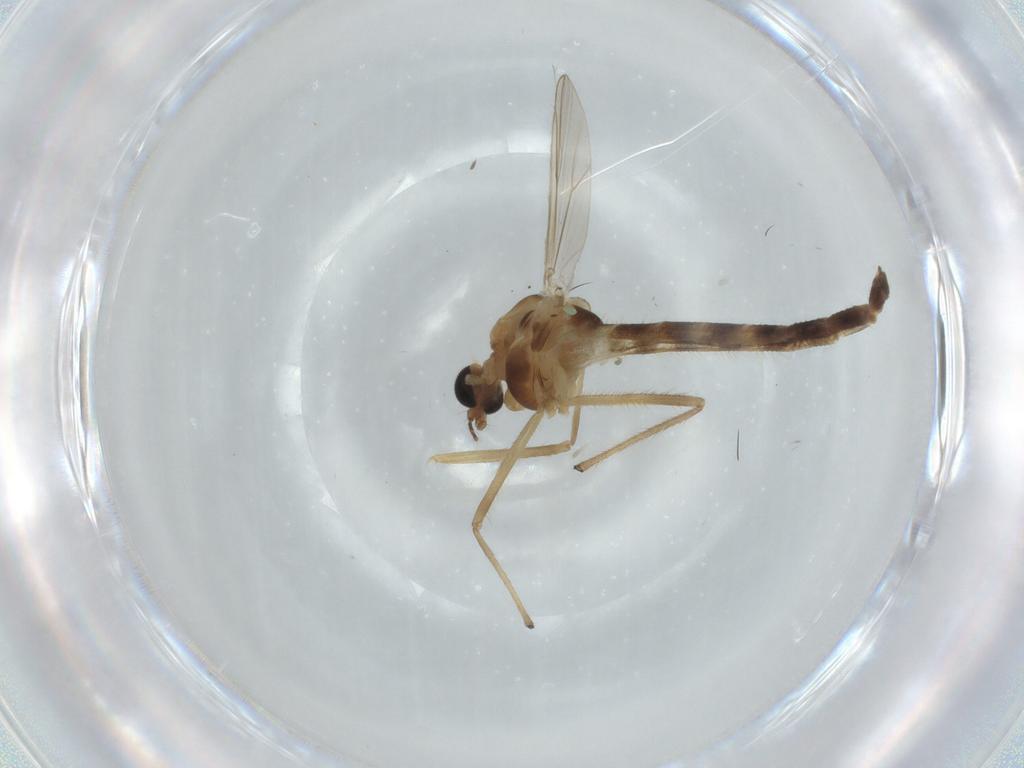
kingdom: Animalia
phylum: Arthropoda
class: Insecta
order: Diptera
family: Chironomidae
